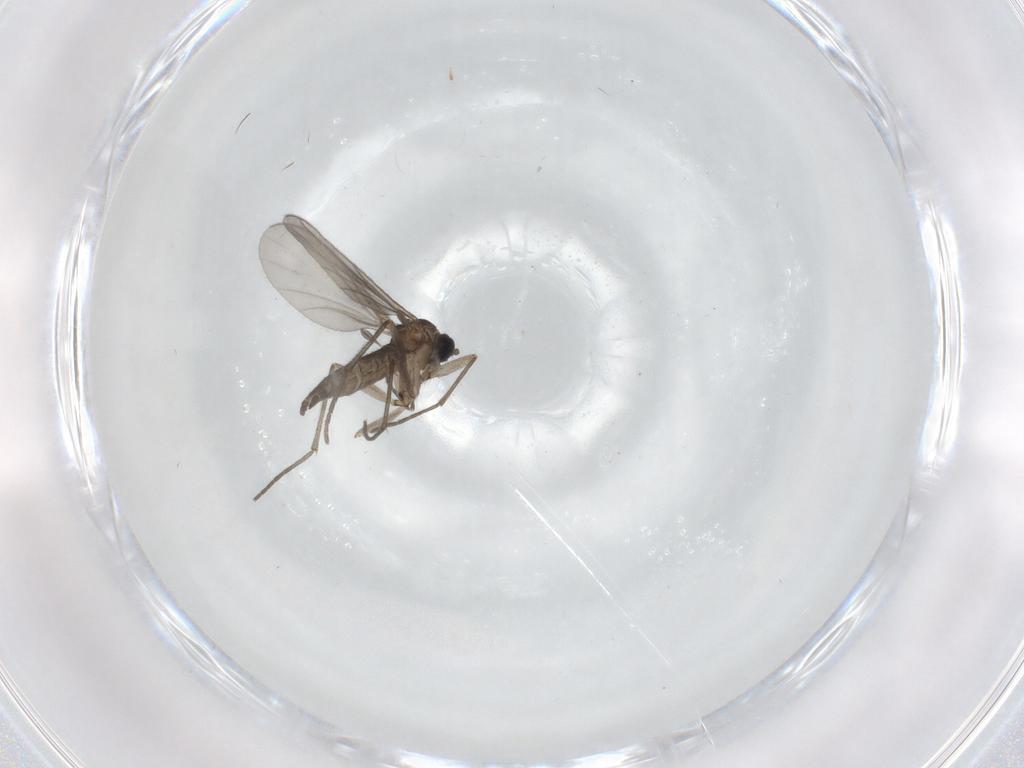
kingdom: Animalia
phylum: Arthropoda
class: Insecta
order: Diptera
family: Sciaridae
